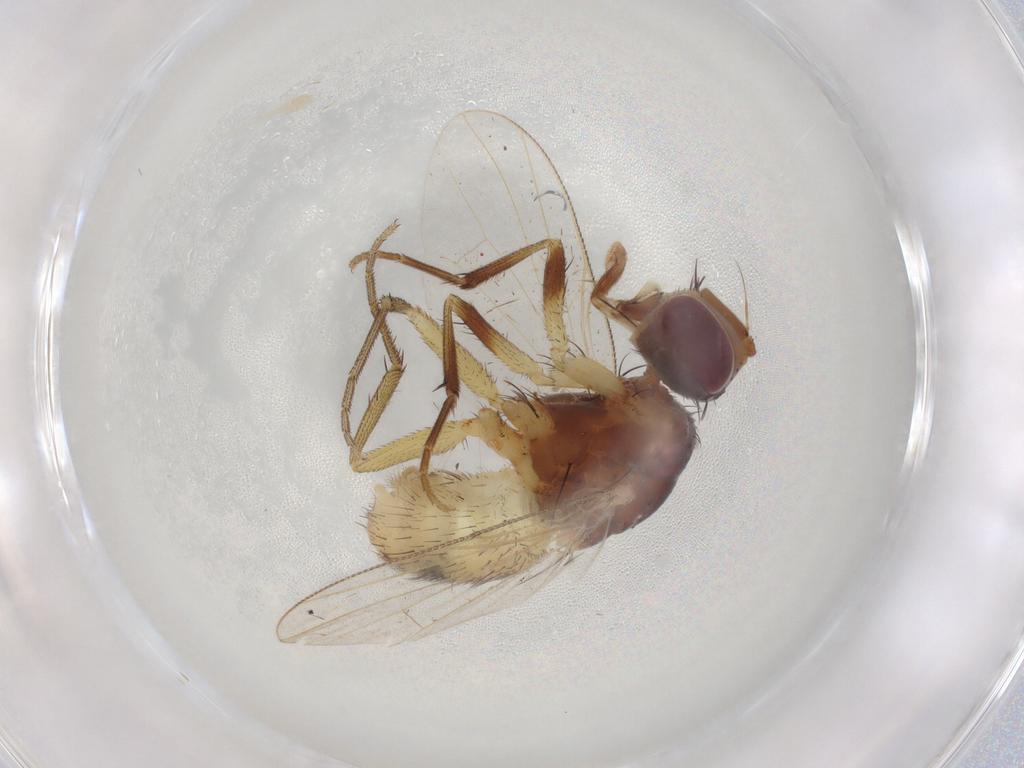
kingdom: Animalia
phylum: Arthropoda
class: Insecta
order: Diptera
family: Muscidae
